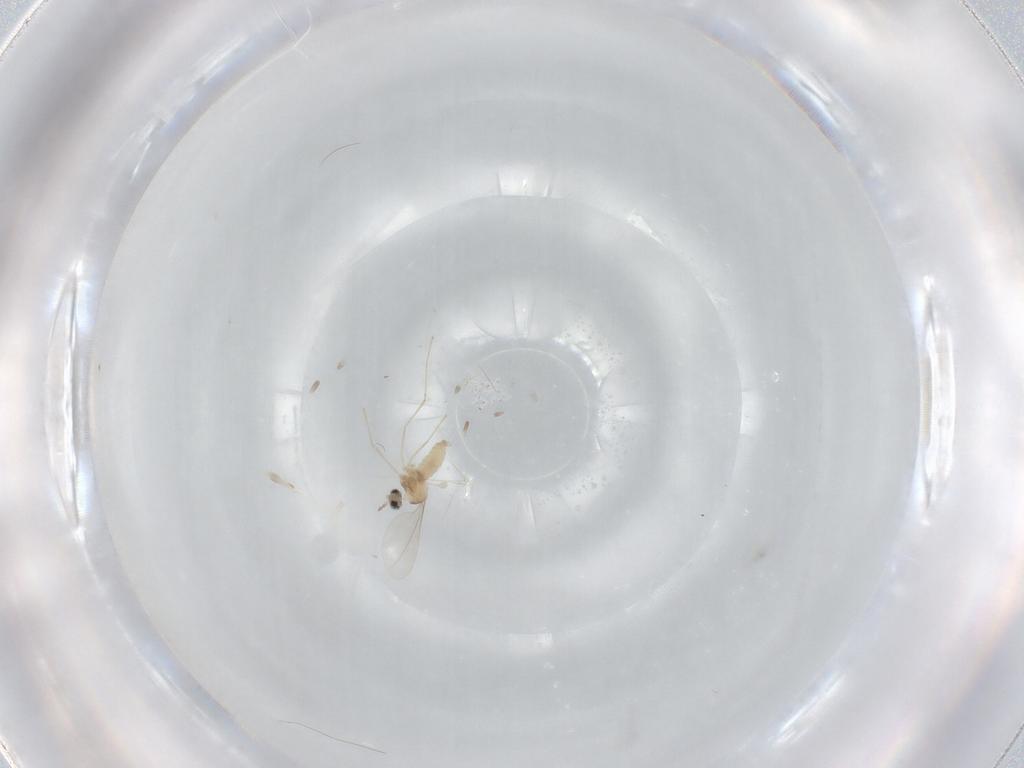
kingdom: Animalia
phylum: Arthropoda
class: Insecta
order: Diptera
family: Cecidomyiidae
